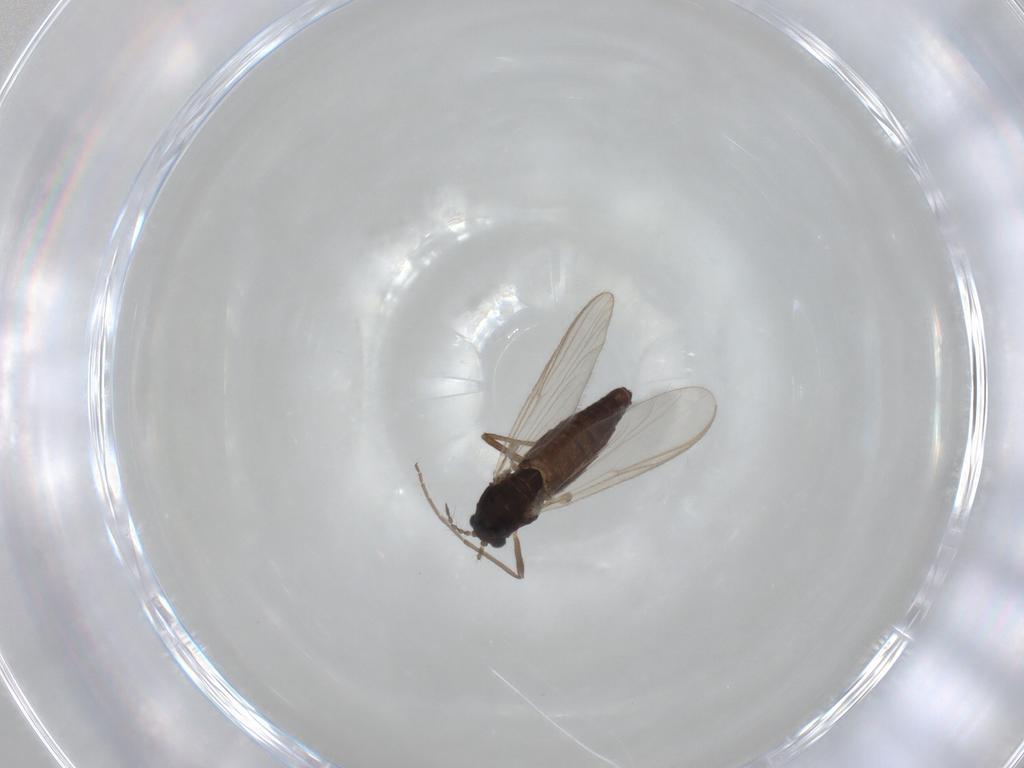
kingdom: Animalia
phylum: Arthropoda
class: Insecta
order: Diptera
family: Chironomidae
